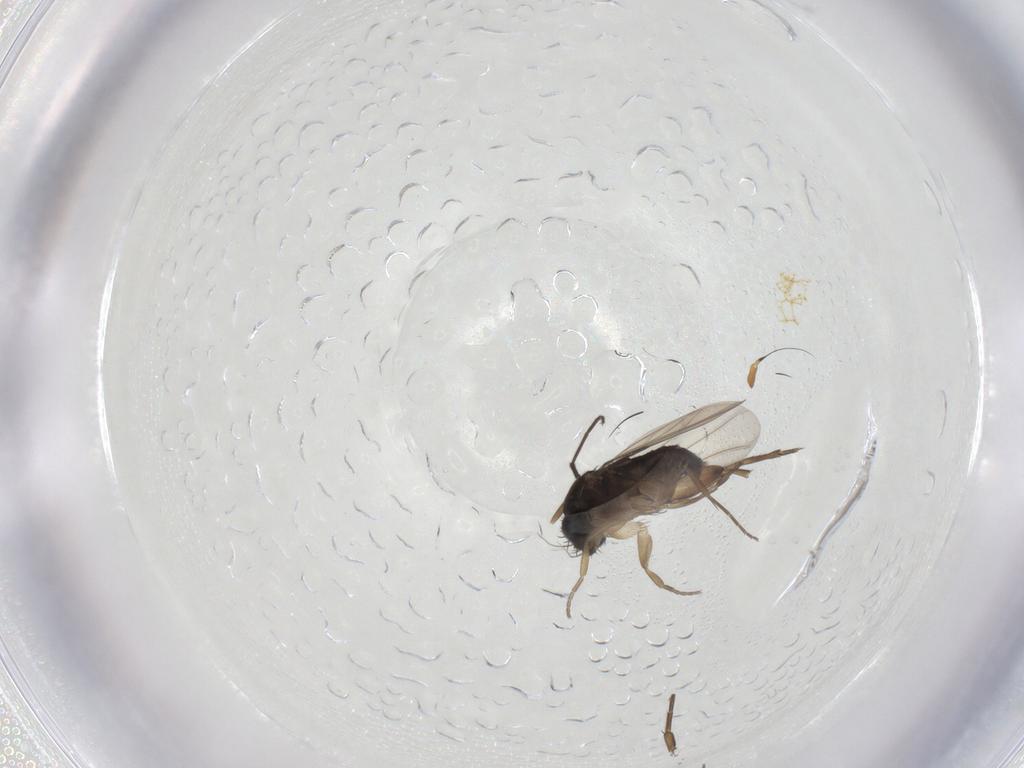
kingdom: Animalia
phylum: Arthropoda
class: Insecta
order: Diptera
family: Phoridae
